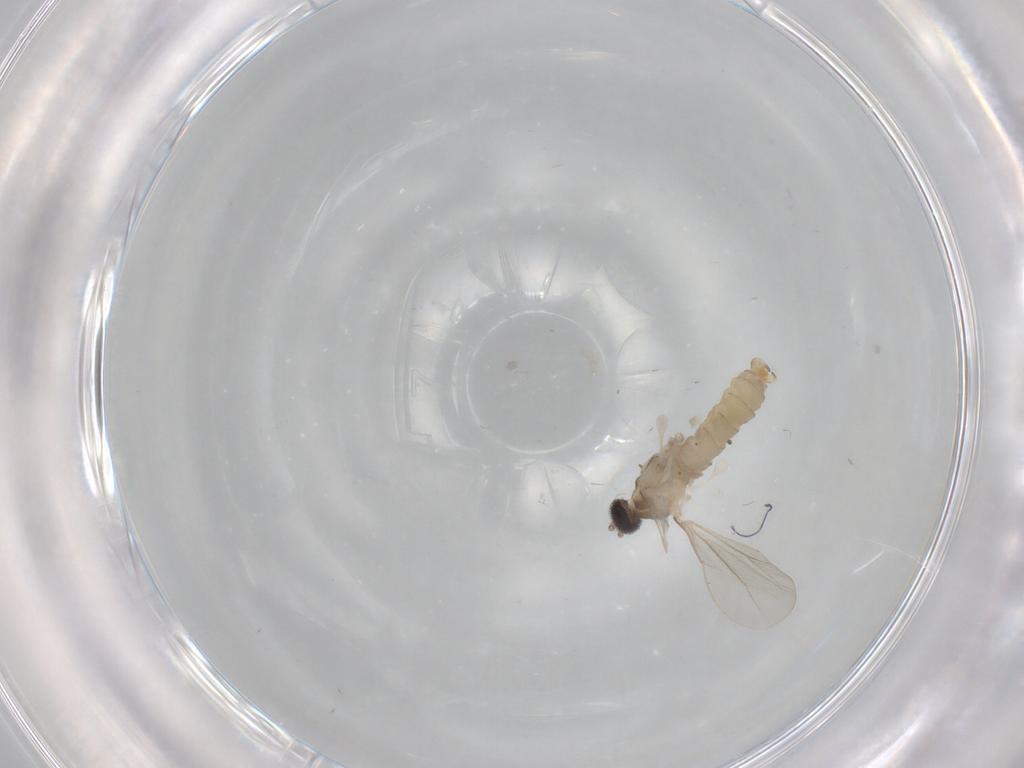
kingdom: Animalia
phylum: Arthropoda
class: Insecta
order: Diptera
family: Cecidomyiidae
